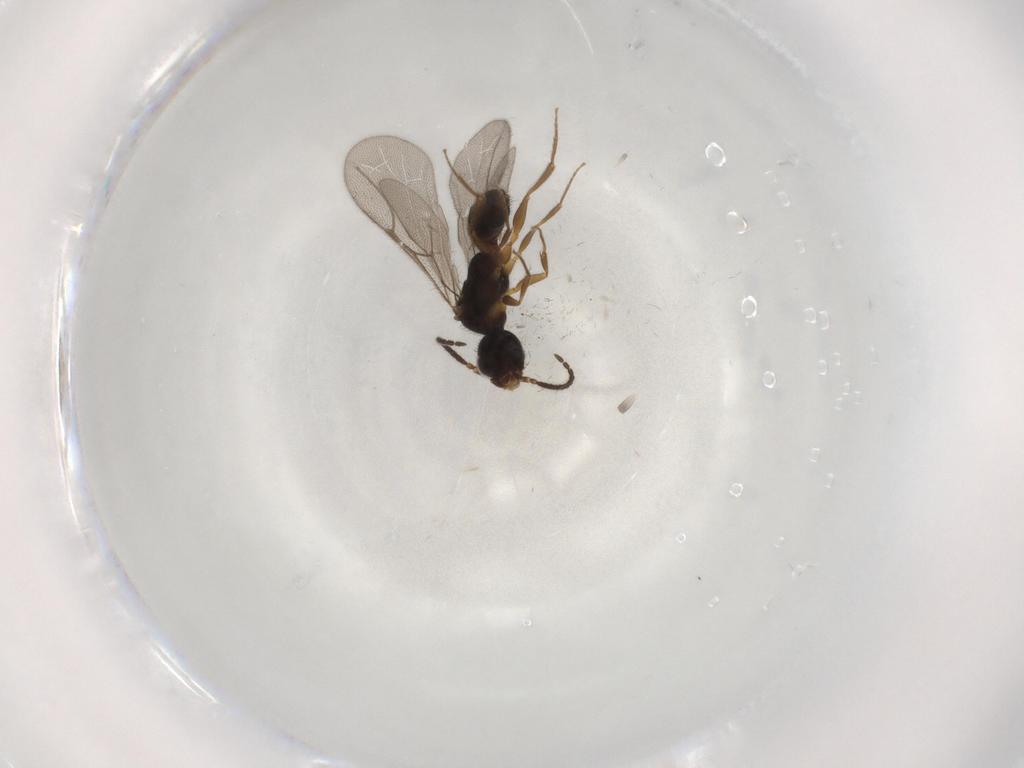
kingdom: Animalia
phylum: Arthropoda
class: Insecta
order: Hymenoptera
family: Bethylidae
